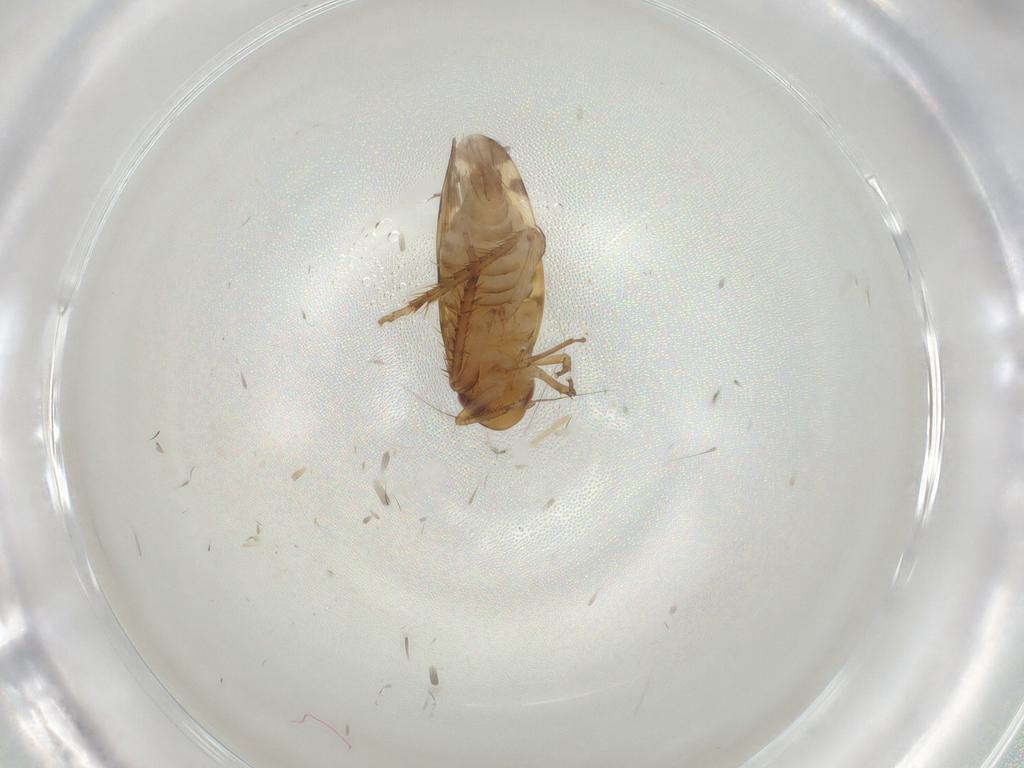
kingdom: Animalia
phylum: Arthropoda
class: Insecta
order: Hemiptera
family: Cicadellidae
